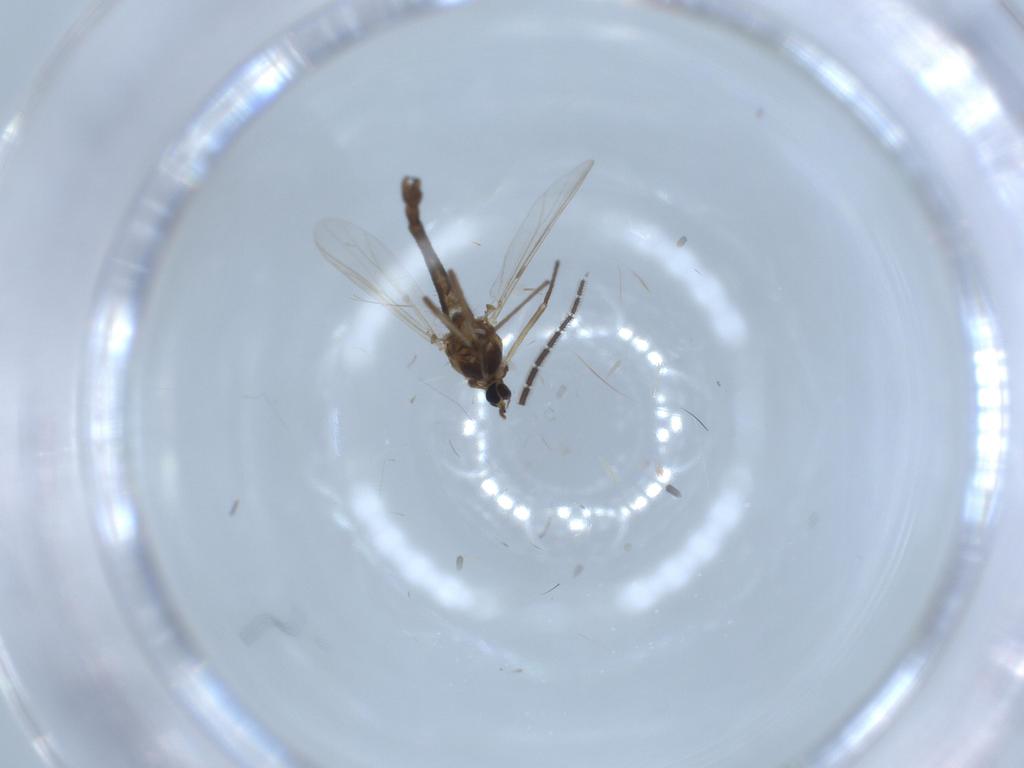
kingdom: Animalia
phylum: Arthropoda
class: Insecta
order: Diptera
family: Chironomidae
